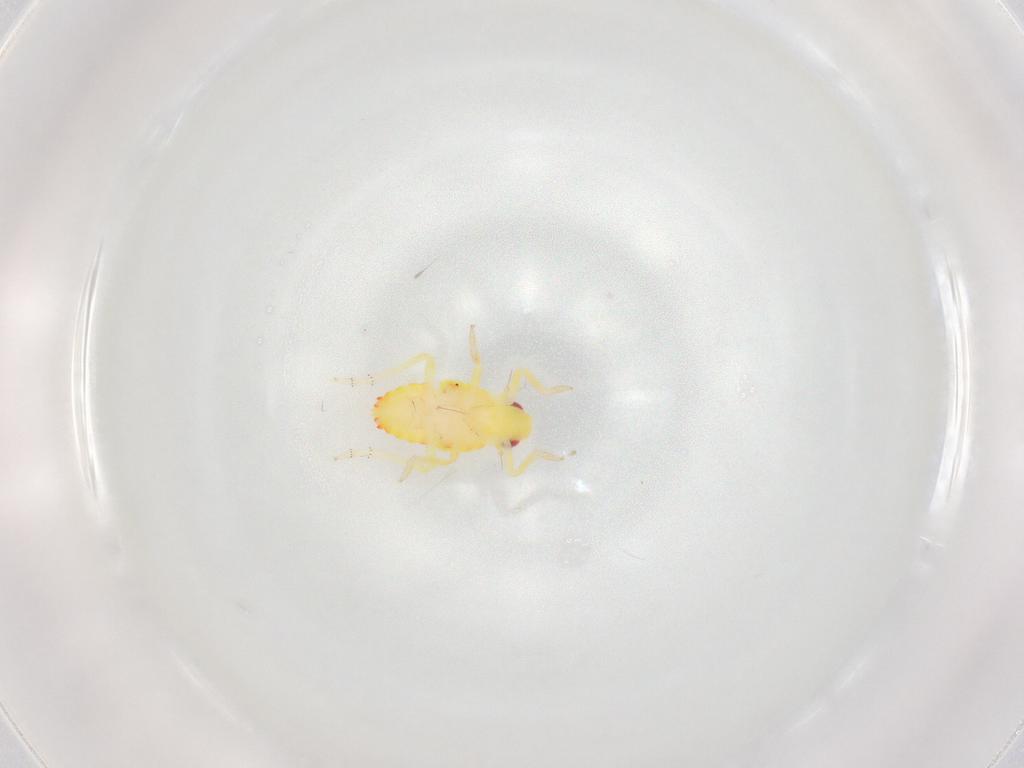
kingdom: Animalia
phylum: Arthropoda
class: Insecta
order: Hemiptera
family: Tropiduchidae
